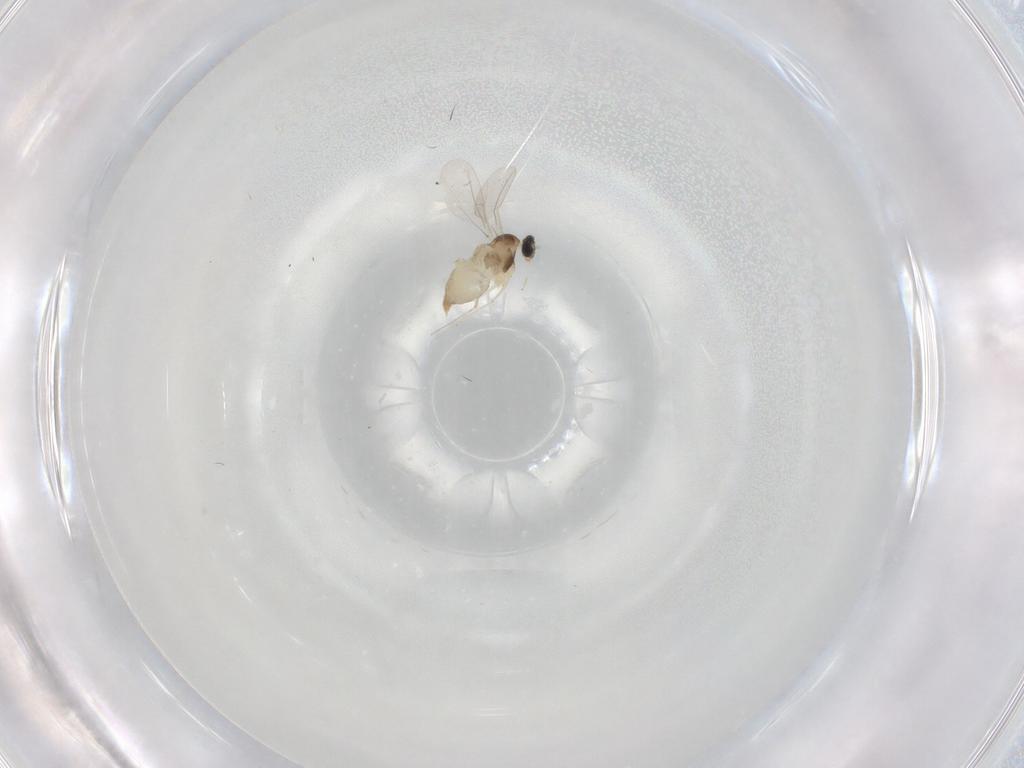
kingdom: Animalia
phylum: Arthropoda
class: Insecta
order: Diptera
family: Cecidomyiidae
